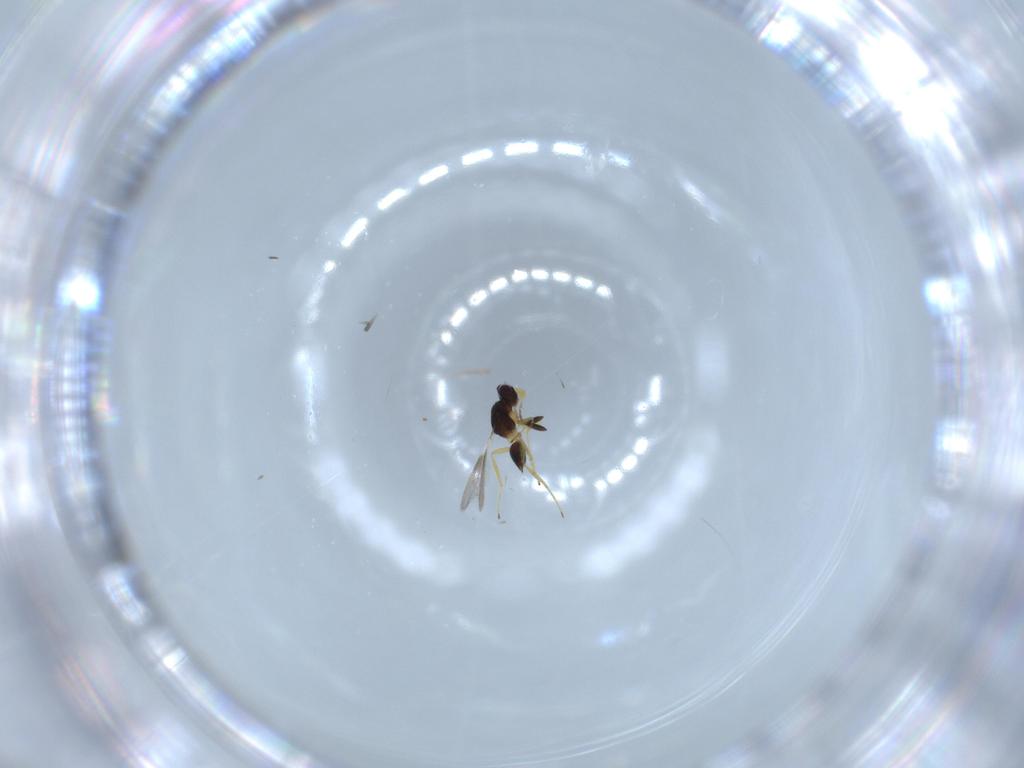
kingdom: Animalia
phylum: Arthropoda
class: Insecta
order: Hymenoptera
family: Mymaridae
